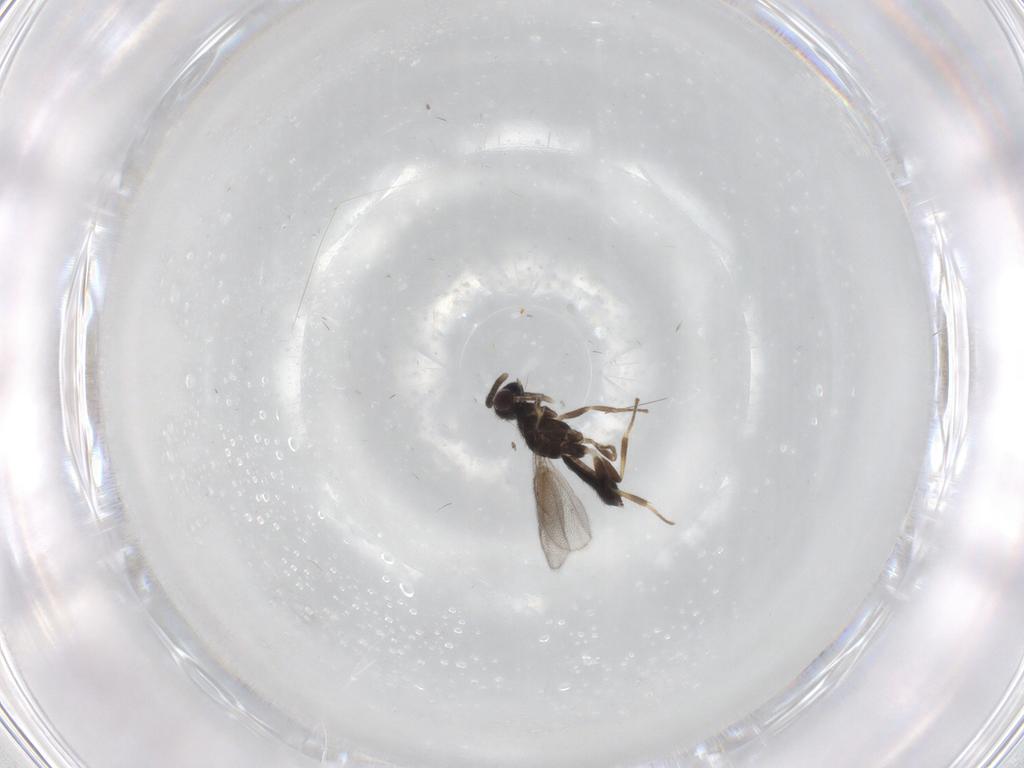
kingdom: Animalia
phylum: Arthropoda
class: Insecta
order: Hymenoptera
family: Eupelmidae
